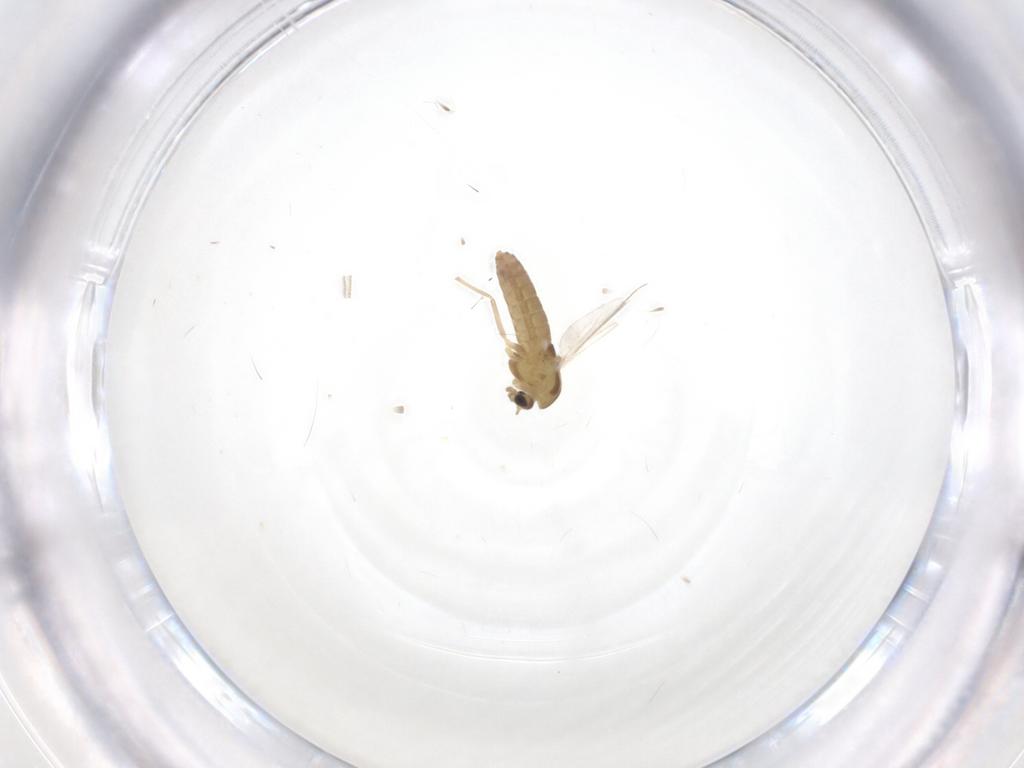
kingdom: Animalia
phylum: Arthropoda
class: Insecta
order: Diptera
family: Chironomidae
